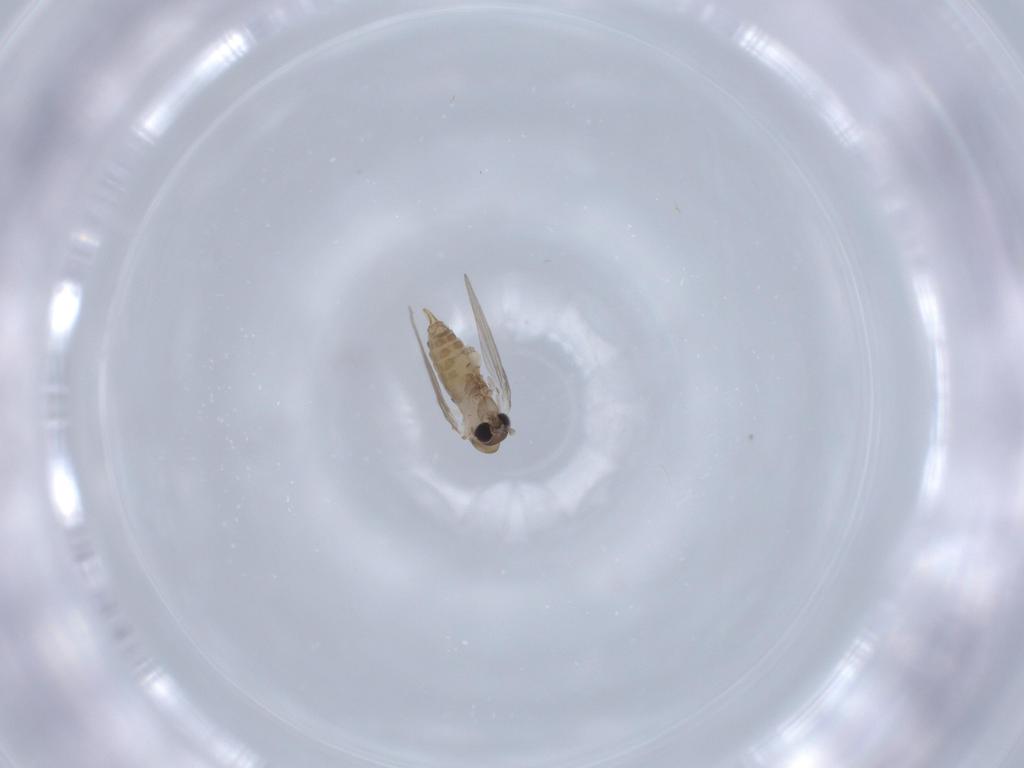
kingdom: Animalia
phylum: Arthropoda
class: Insecta
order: Diptera
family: Psychodidae
